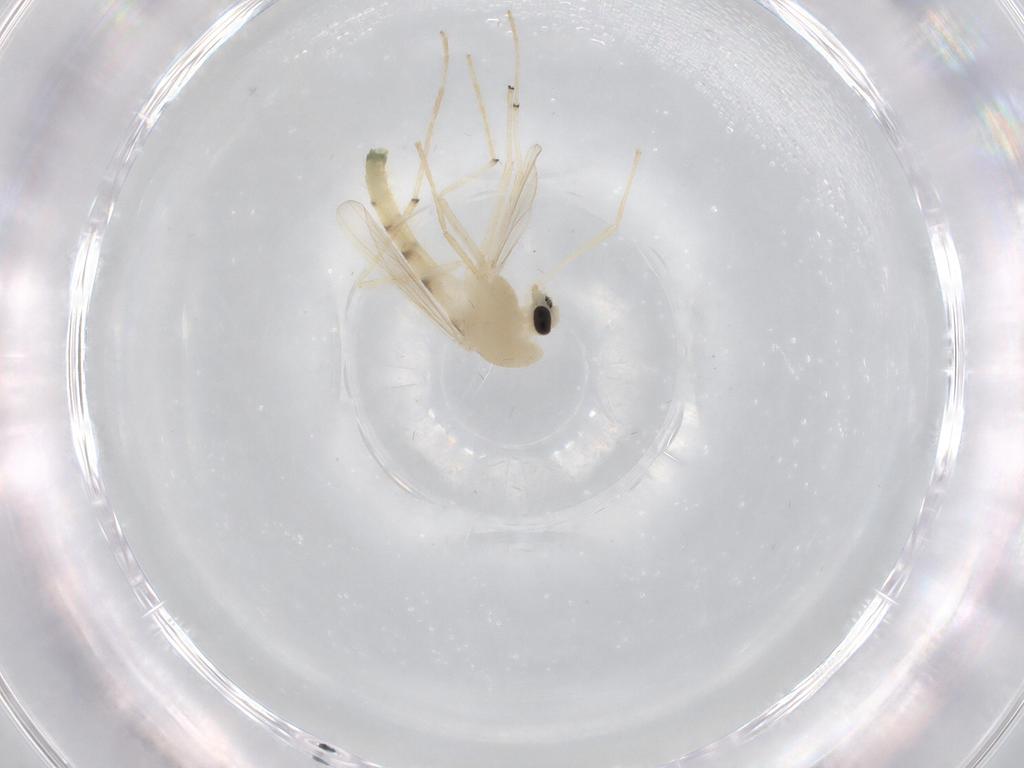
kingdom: Animalia
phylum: Arthropoda
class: Insecta
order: Diptera
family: Chironomidae
